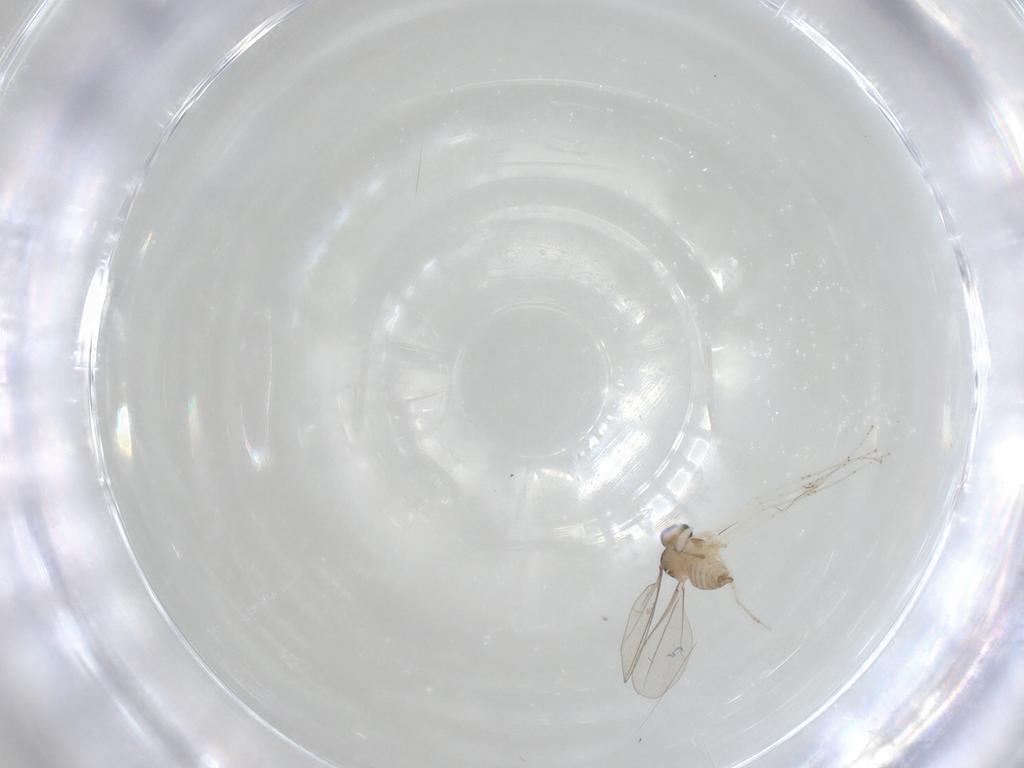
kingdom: Animalia
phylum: Arthropoda
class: Insecta
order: Diptera
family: Cecidomyiidae
